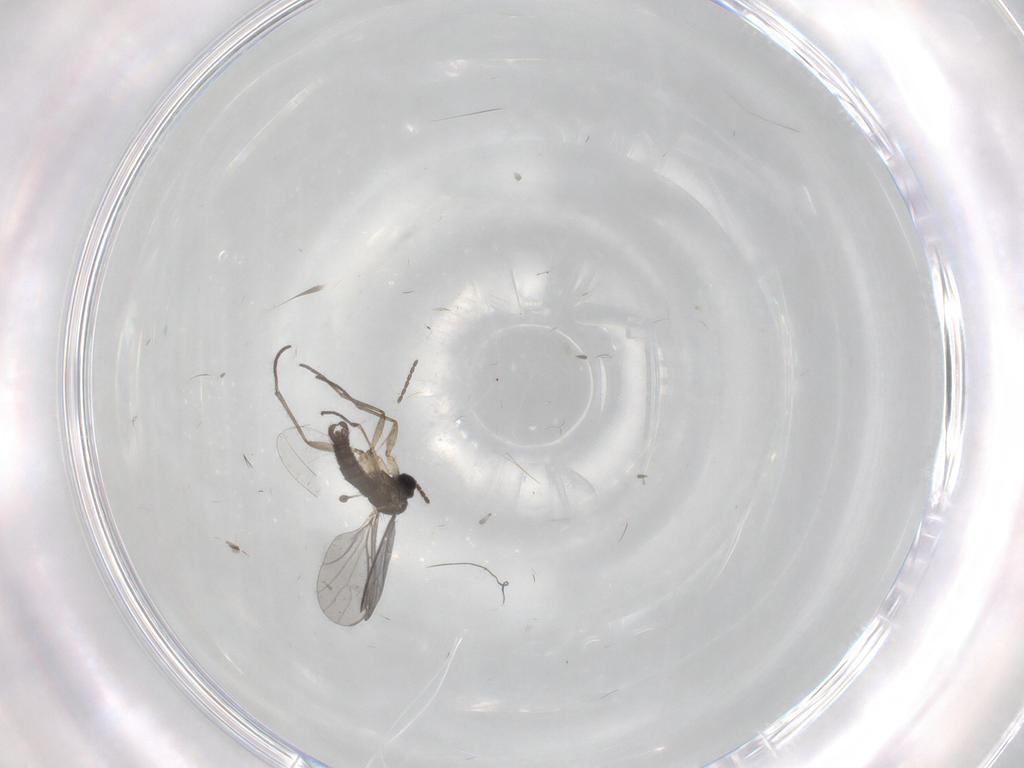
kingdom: Animalia
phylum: Arthropoda
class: Insecta
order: Diptera
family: Sciaridae
